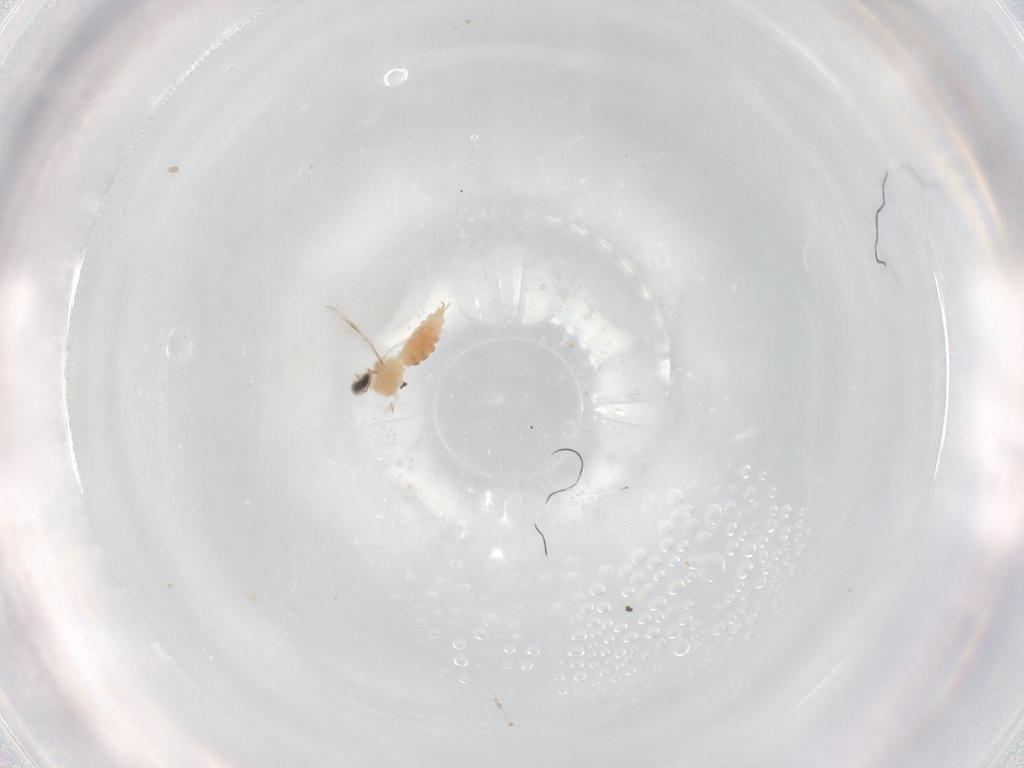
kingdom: Animalia
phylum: Arthropoda
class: Insecta
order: Diptera
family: Cecidomyiidae
